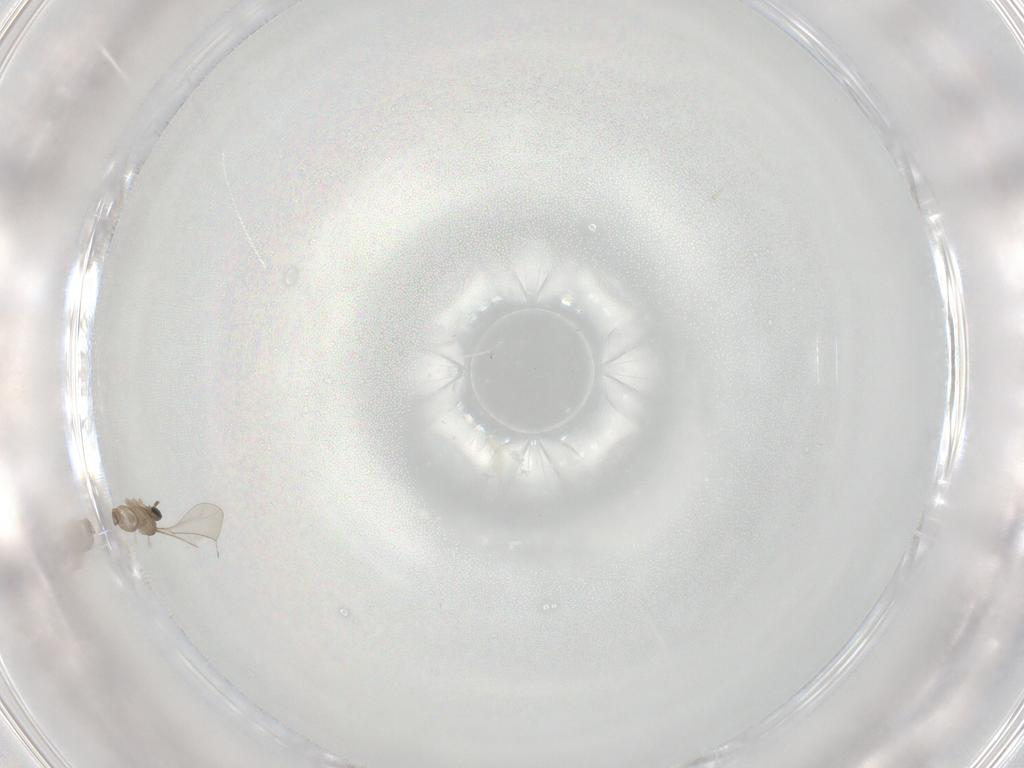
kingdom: Animalia
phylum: Arthropoda
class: Insecta
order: Diptera
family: Cecidomyiidae
